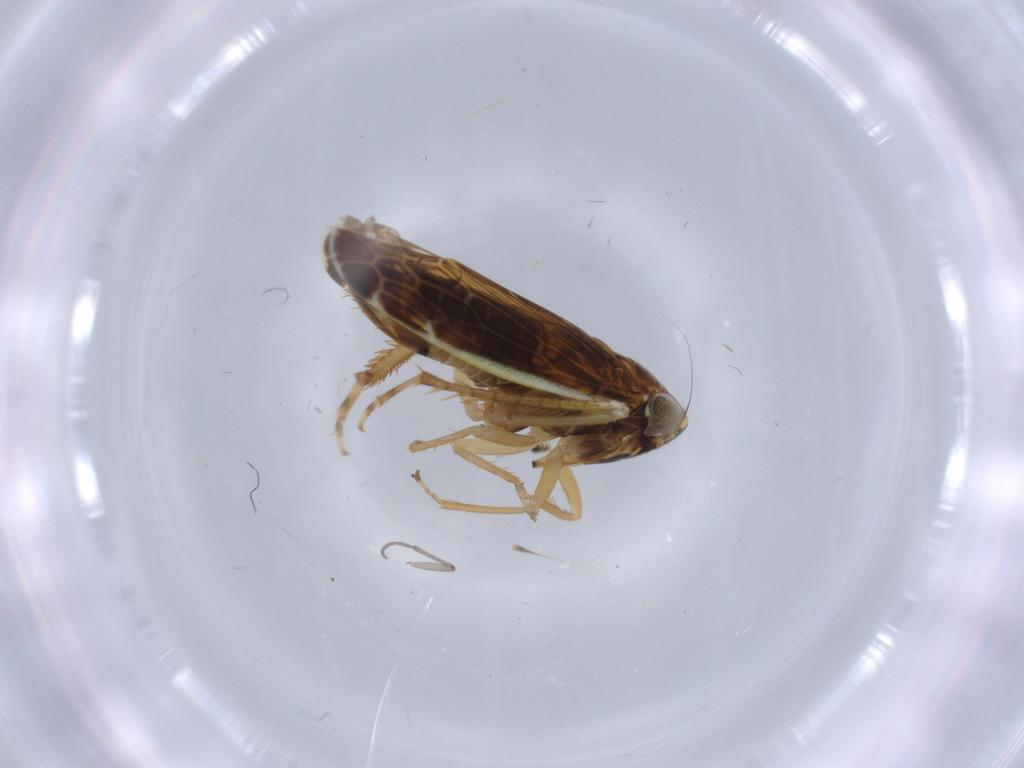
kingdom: Animalia
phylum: Arthropoda
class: Insecta
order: Hemiptera
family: Cicadellidae
